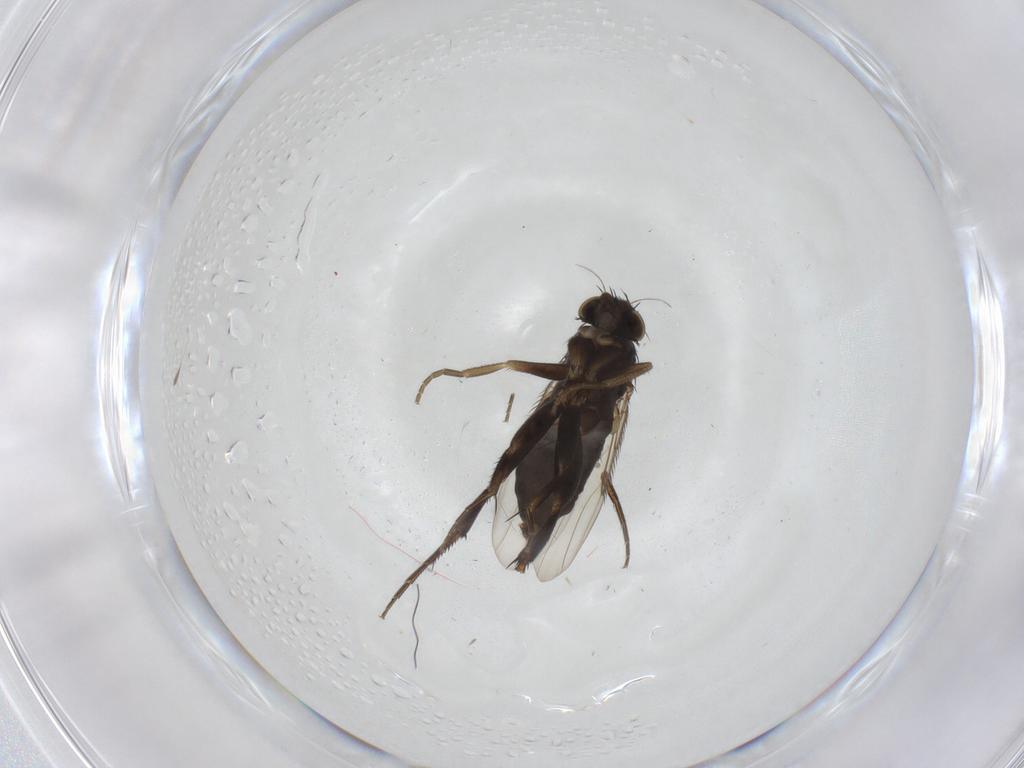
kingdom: Animalia
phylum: Arthropoda
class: Insecta
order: Diptera
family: Phoridae
